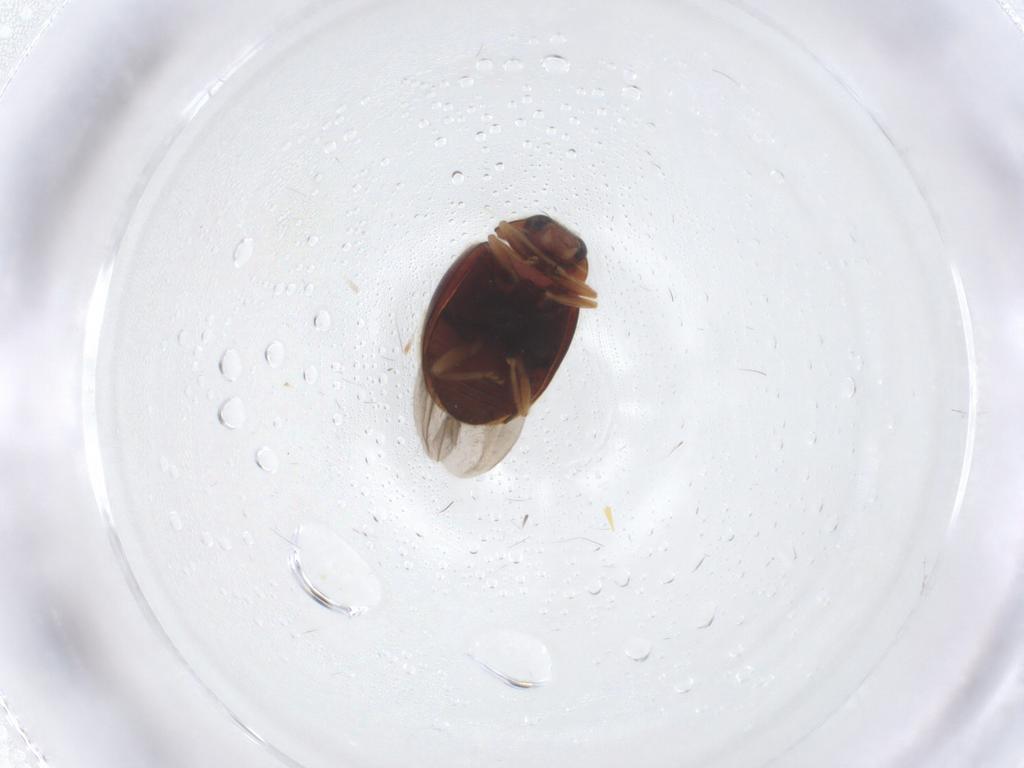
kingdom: Animalia
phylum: Arthropoda
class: Insecta
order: Coleoptera
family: Coccinellidae
